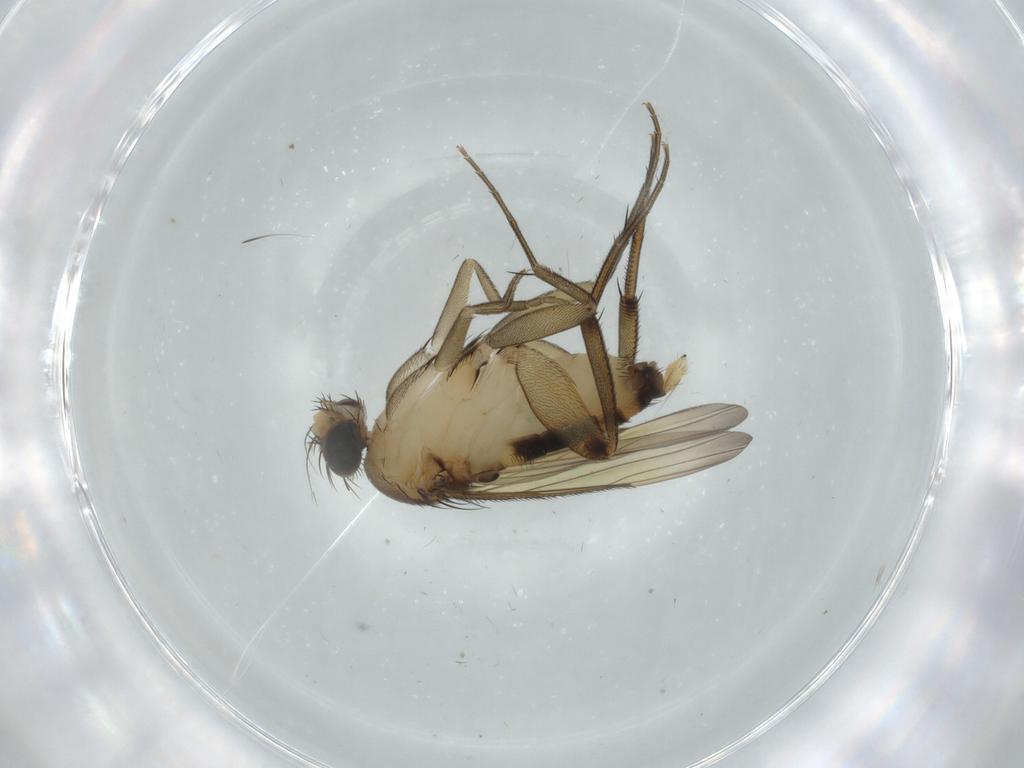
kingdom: Animalia
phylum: Arthropoda
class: Insecta
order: Diptera
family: Phoridae
